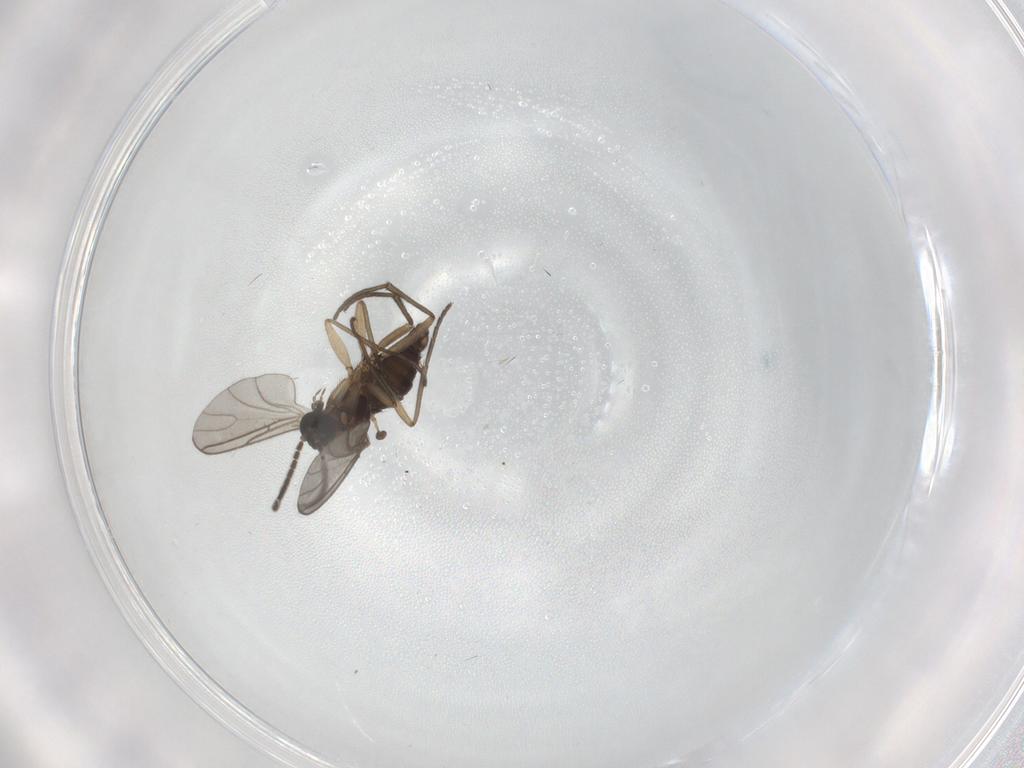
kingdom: Animalia
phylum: Arthropoda
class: Insecta
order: Diptera
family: Sciaridae
